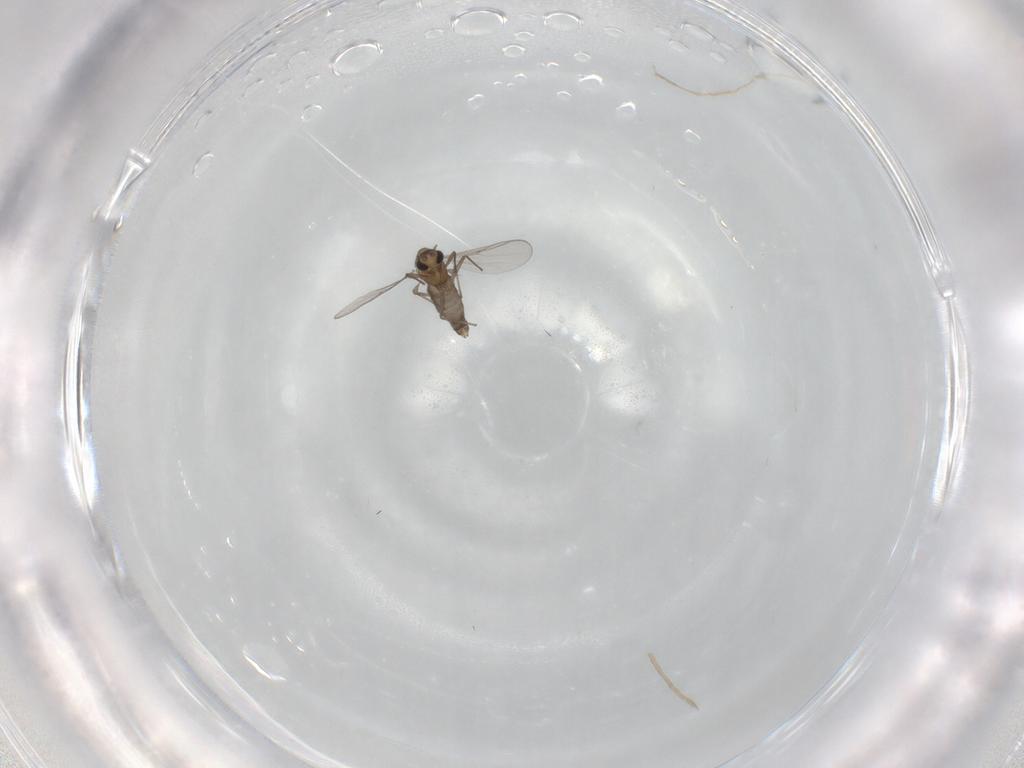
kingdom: Animalia
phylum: Arthropoda
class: Insecta
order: Diptera
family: Chironomidae
